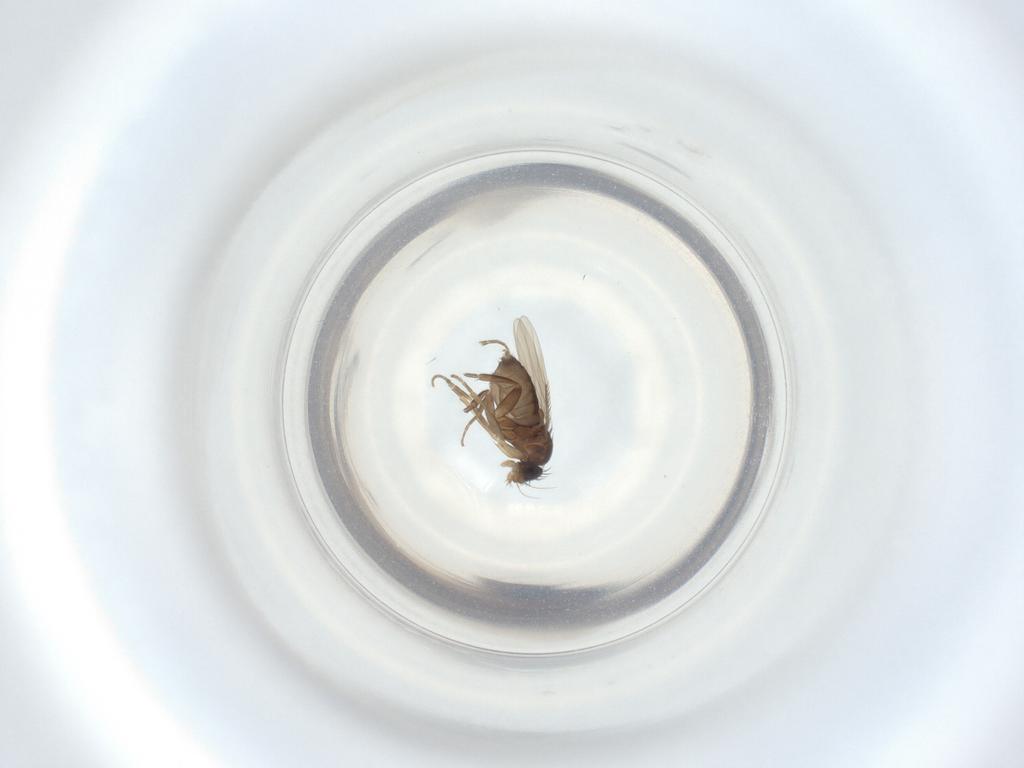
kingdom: Animalia
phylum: Arthropoda
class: Insecta
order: Diptera
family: Phoridae
